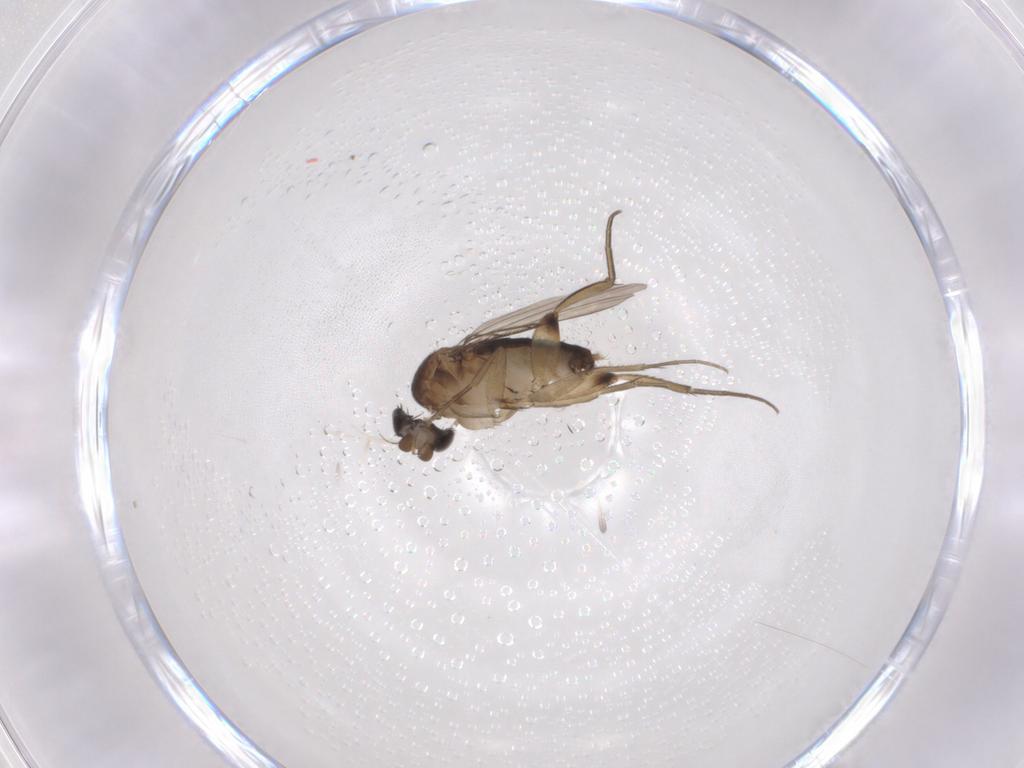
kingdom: Animalia
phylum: Arthropoda
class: Insecta
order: Diptera
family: Phoridae
